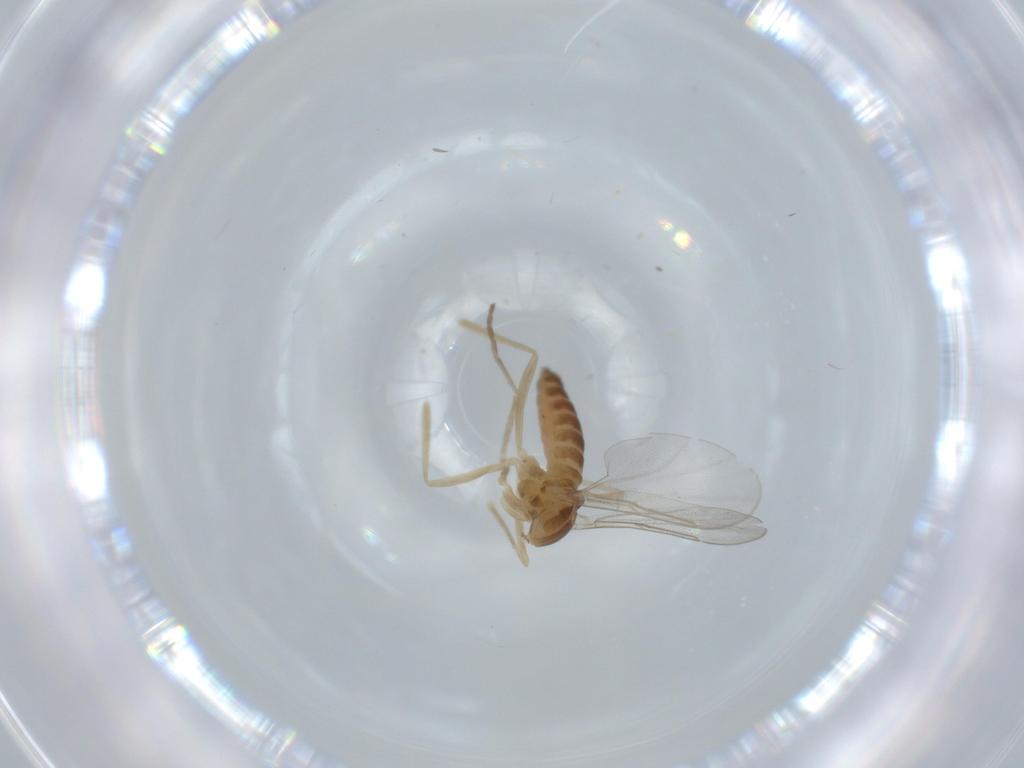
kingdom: Animalia
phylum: Arthropoda
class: Insecta
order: Diptera
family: Cecidomyiidae
